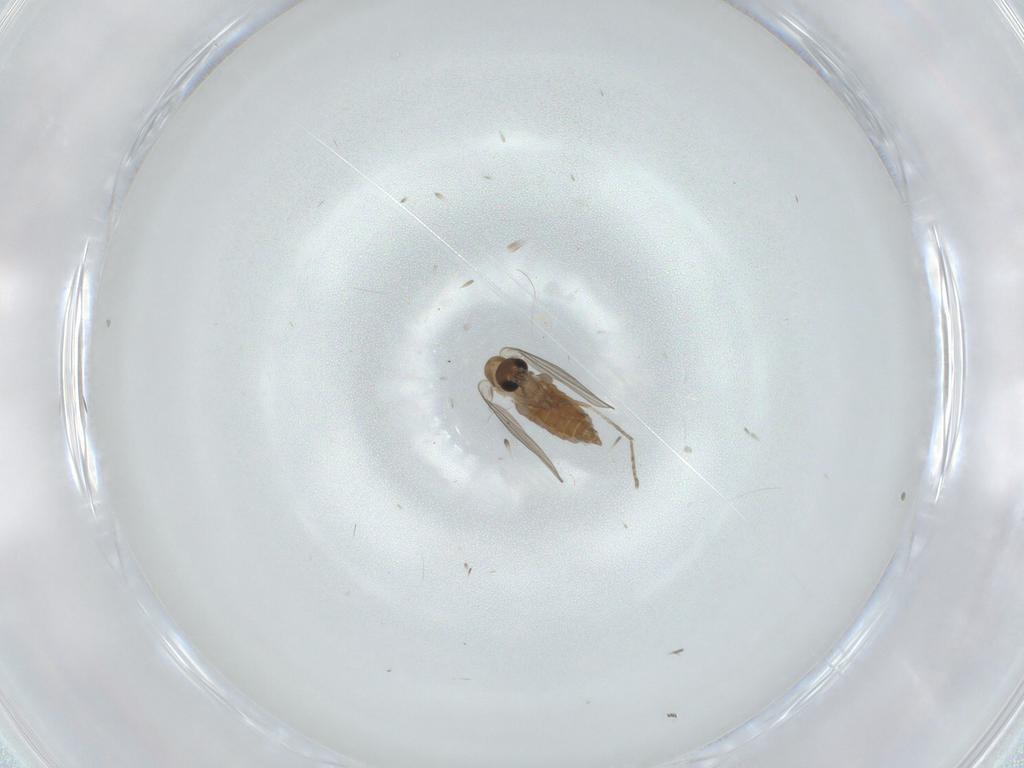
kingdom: Animalia
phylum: Arthropoda
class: Insecta
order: Diptera
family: Psychodidae
